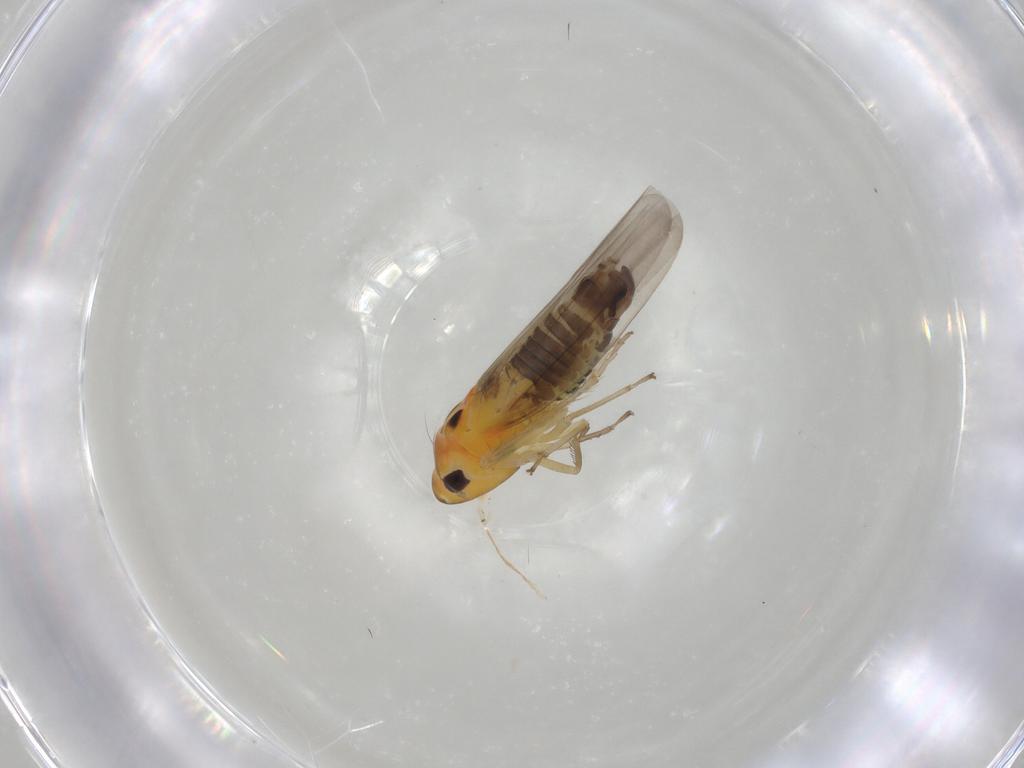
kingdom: Animalia
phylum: Arthropoda
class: Insecta
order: Hemiptera
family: Cicadellidae
